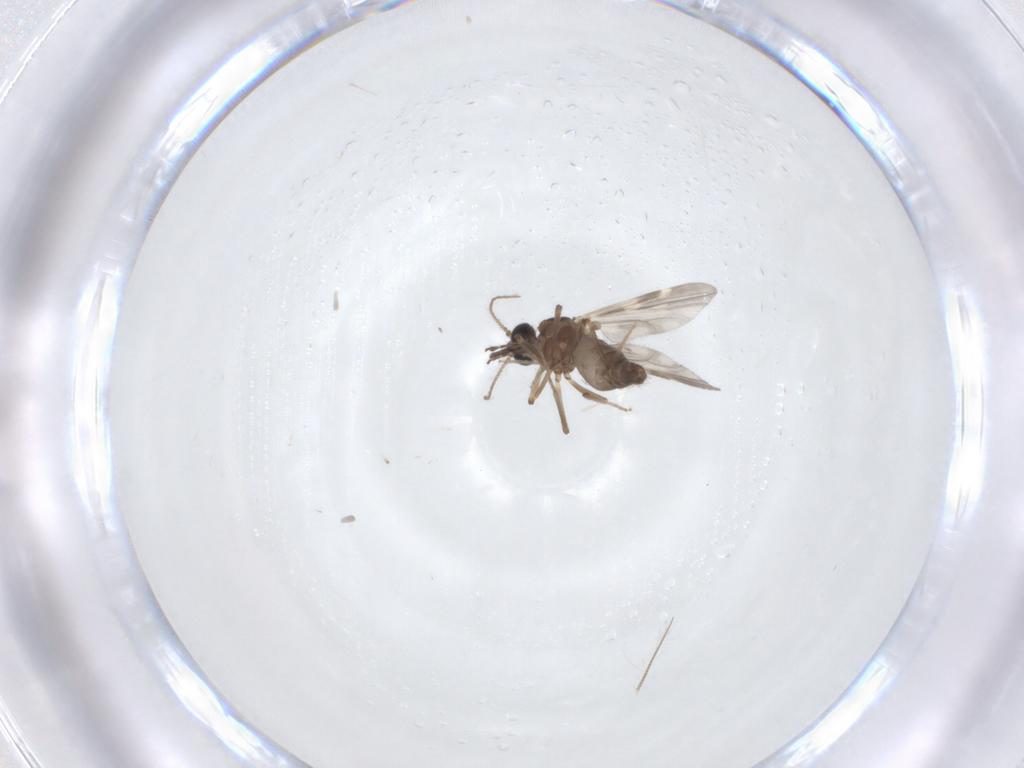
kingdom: Animalia
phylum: Arthropoda
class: Insecta
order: Diptera
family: Ceratopogonidae
